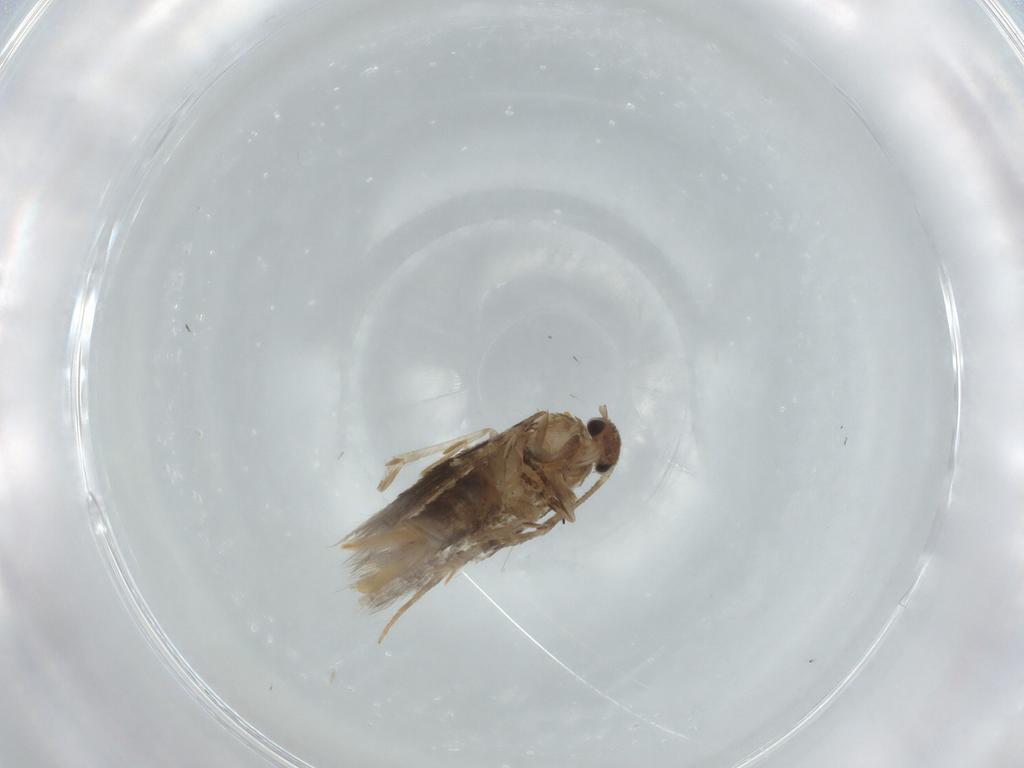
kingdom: Animalia
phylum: Arthropoda
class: Insecta
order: Lepidoptera
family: Elachistidae
